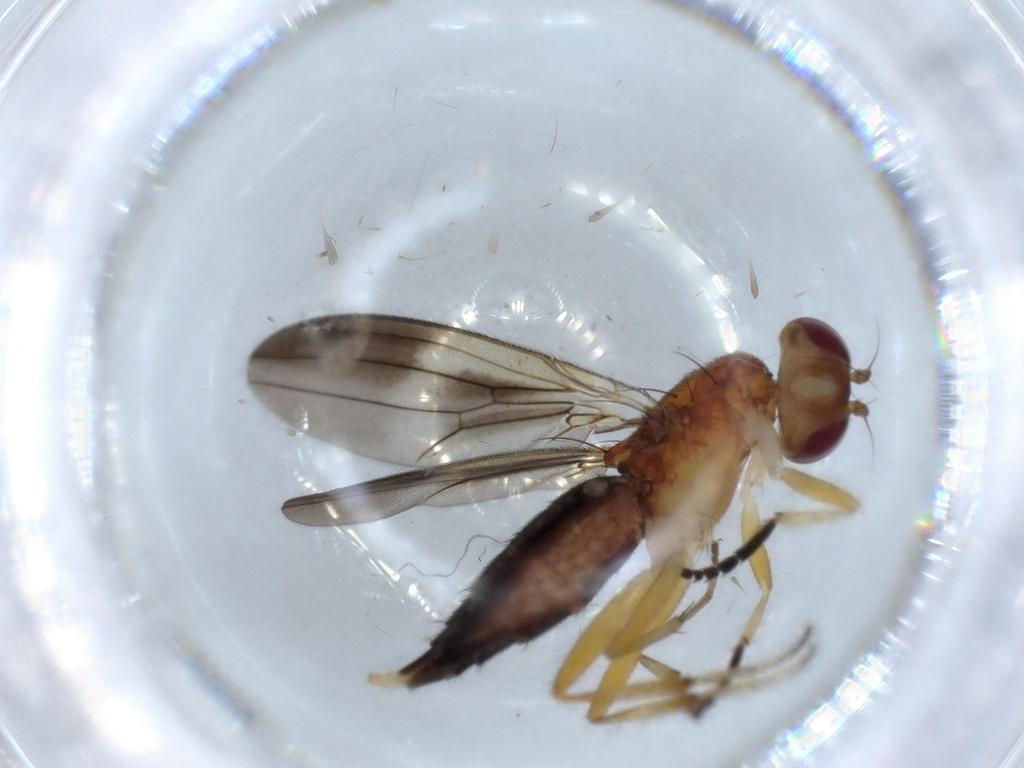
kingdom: Animalia
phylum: Arthropoda
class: Insecta
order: Diptera
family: Clusiidae
